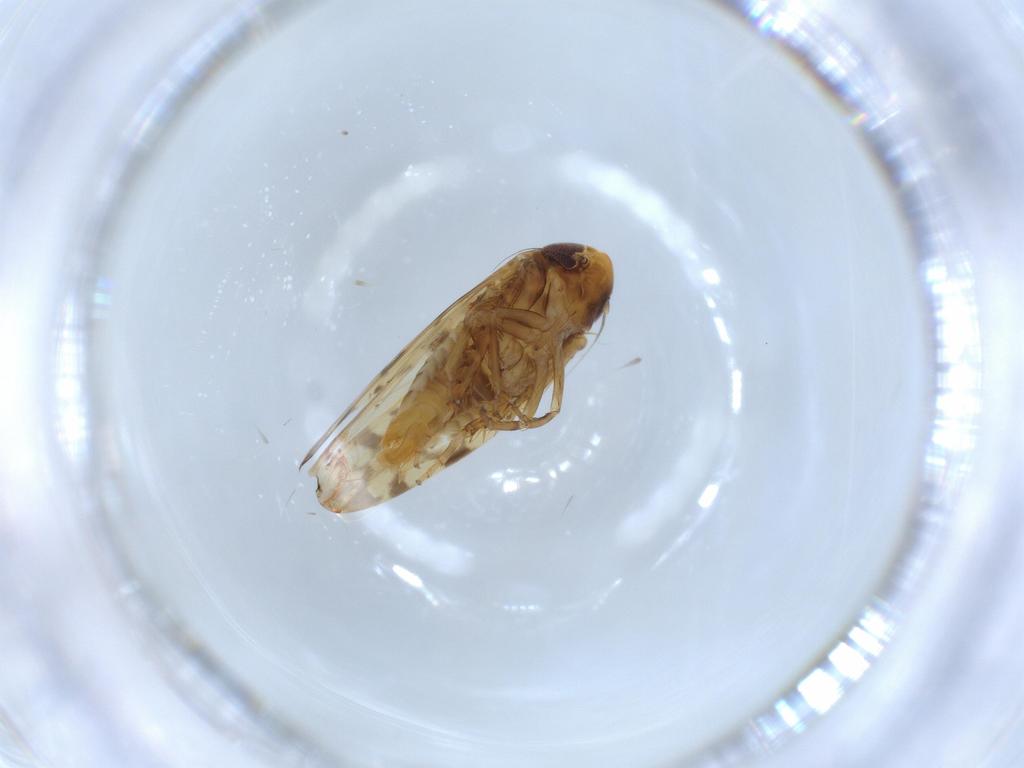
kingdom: Animalia
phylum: Arthropoda
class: Insecta
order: Hemiptera
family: Cicadellidae
